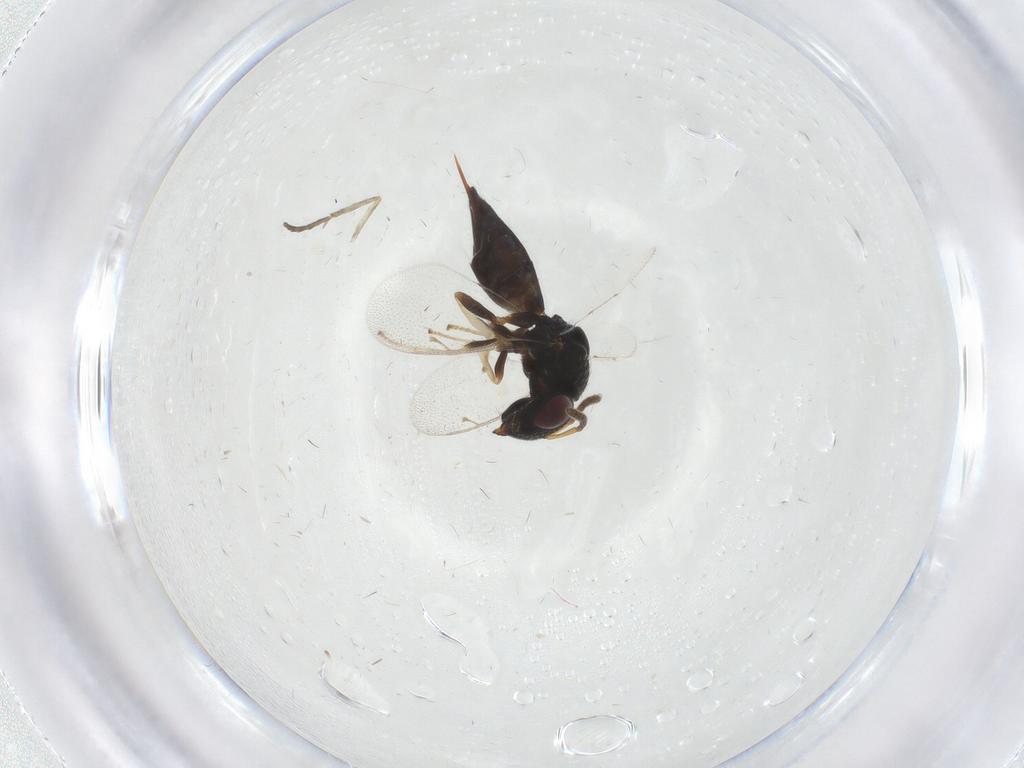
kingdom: Animalia
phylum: Arthropoda
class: Insecta
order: Hymenoptera
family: Pteromalidae
